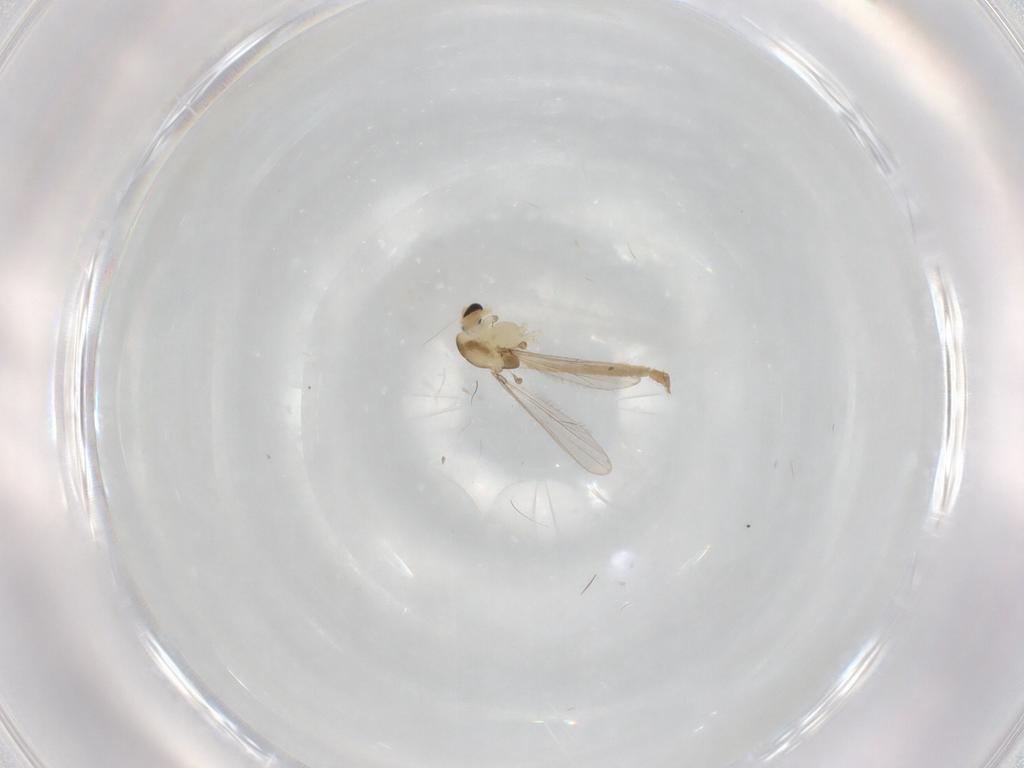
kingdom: Animalia
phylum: Arthropoda
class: Insecta
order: Diptera
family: Chironomidae
